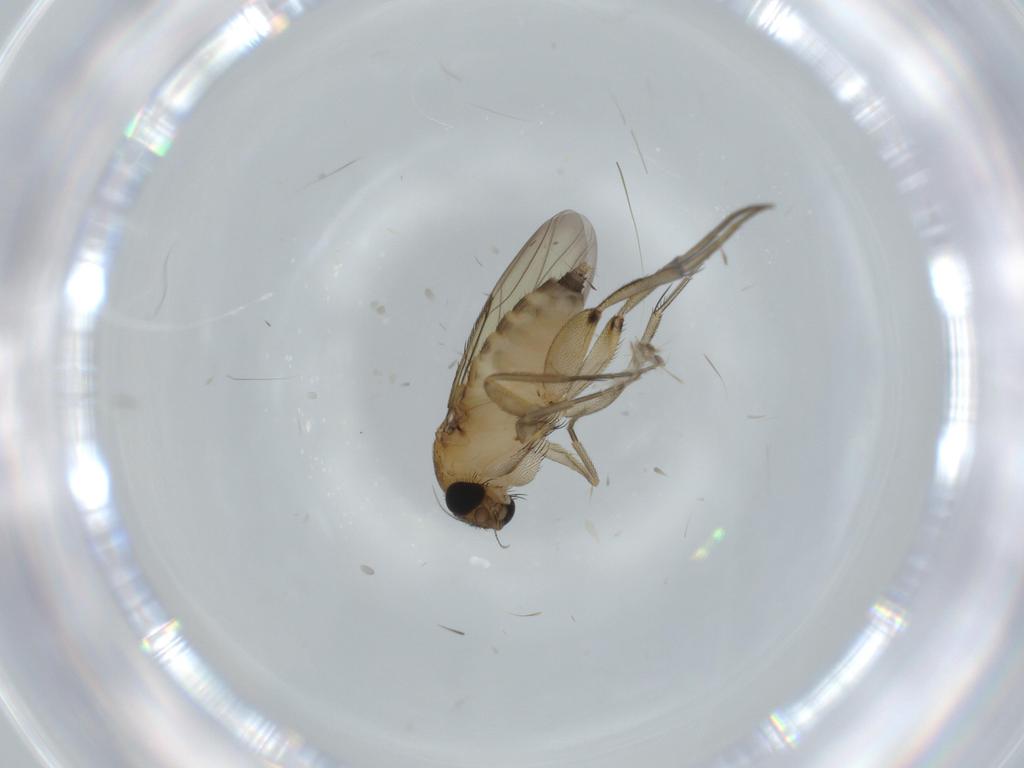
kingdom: Animalia
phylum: Arthropoda
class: Insecta
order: Diptera
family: Phoridae
